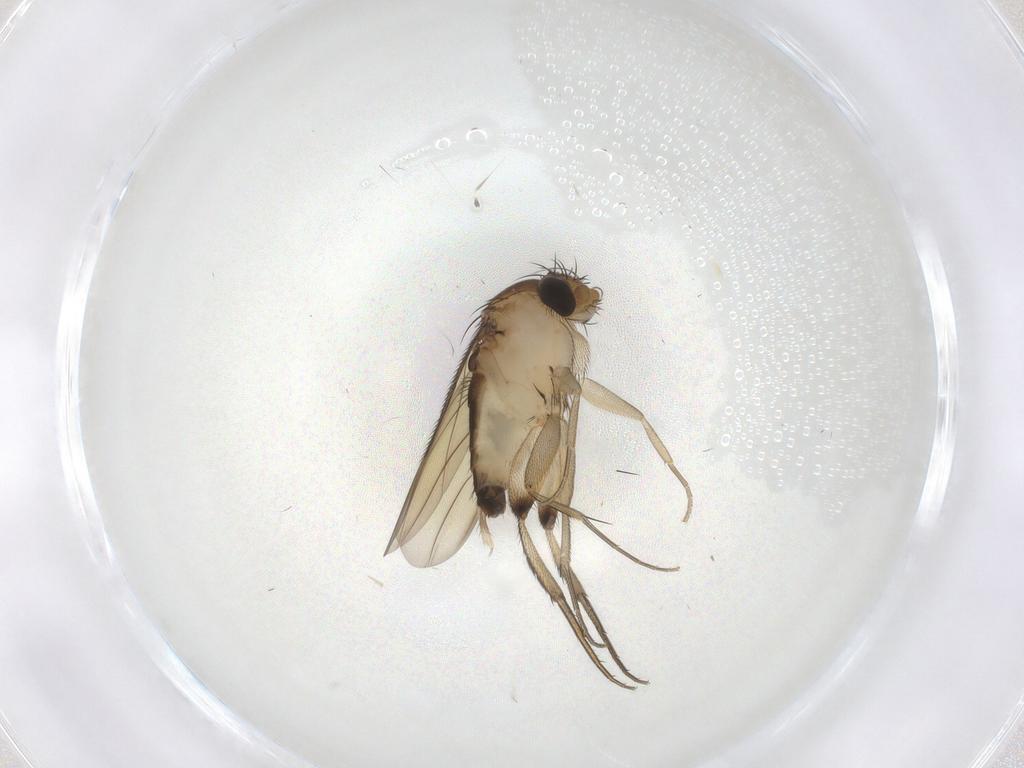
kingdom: Animalia
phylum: Arthropoda
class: Insecta
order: Diptera
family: Phoridae
